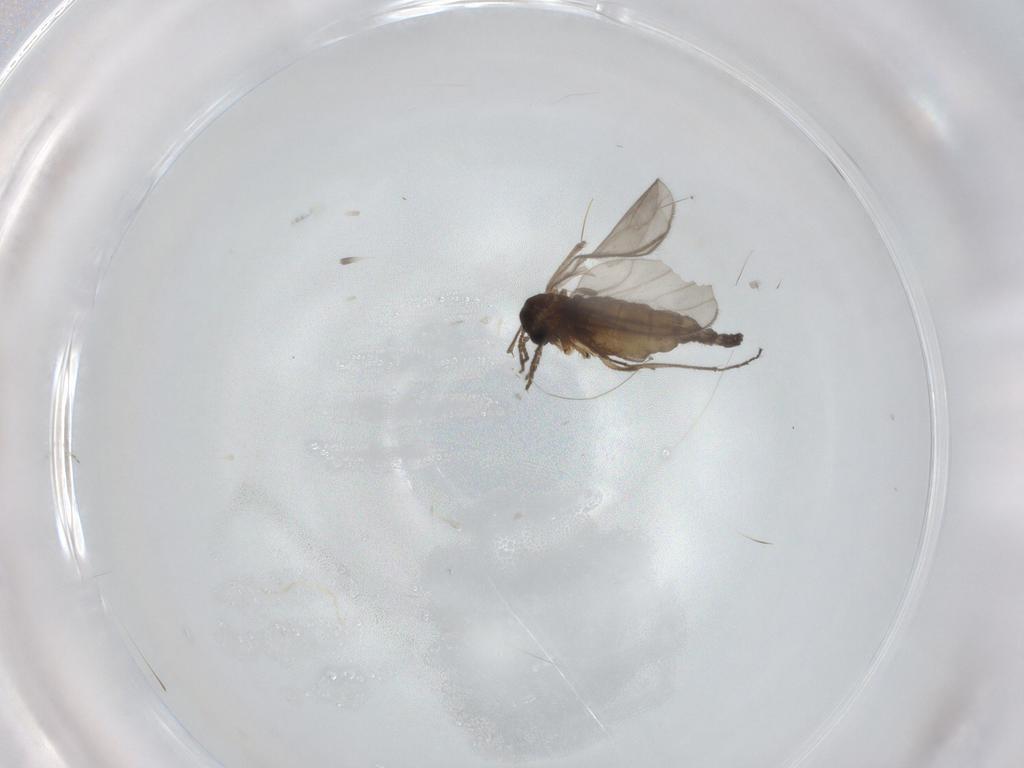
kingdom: Animalia
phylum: Arthropoda
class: Insecta
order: Diptera
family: Sciaridae
